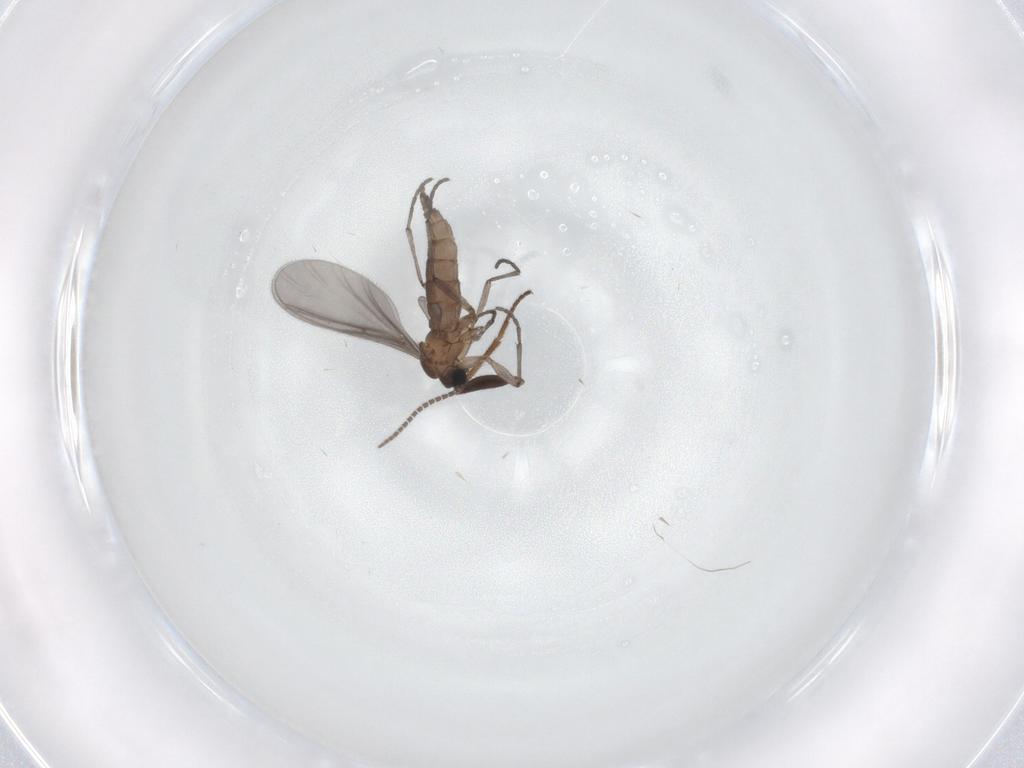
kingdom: Animalia
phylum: Arthropoda
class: Insecta
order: Diptera
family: Sciaridae
